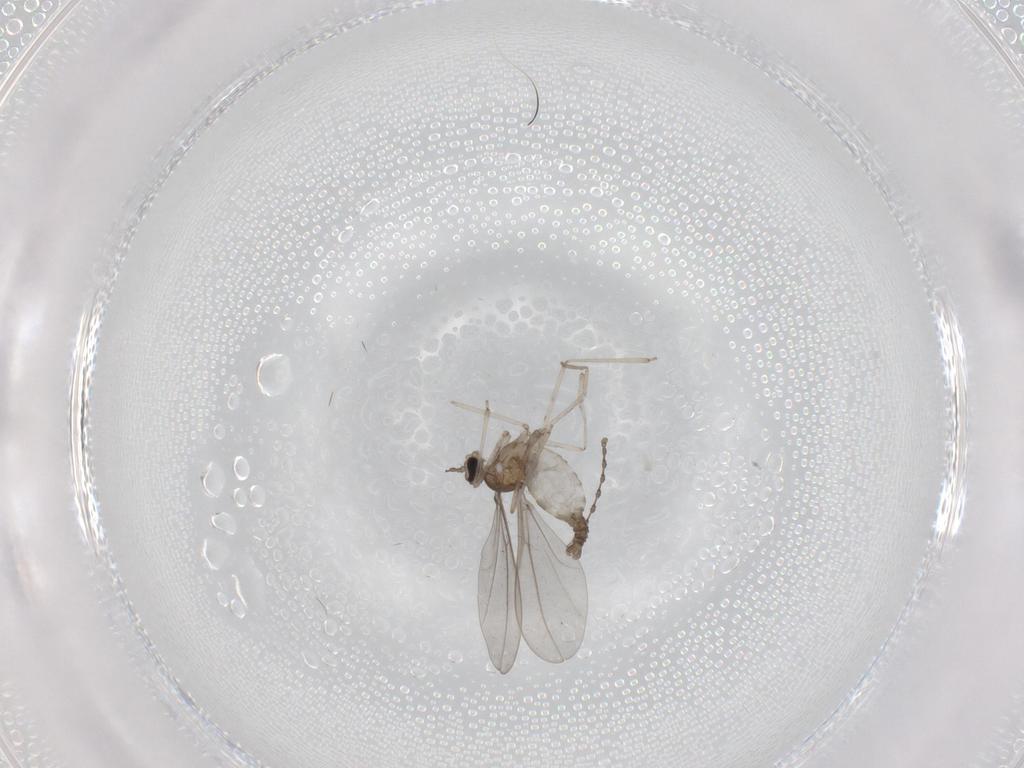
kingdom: Animalia
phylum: Arthropoda
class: Insecta
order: Diptera
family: Cecidomyiidae
